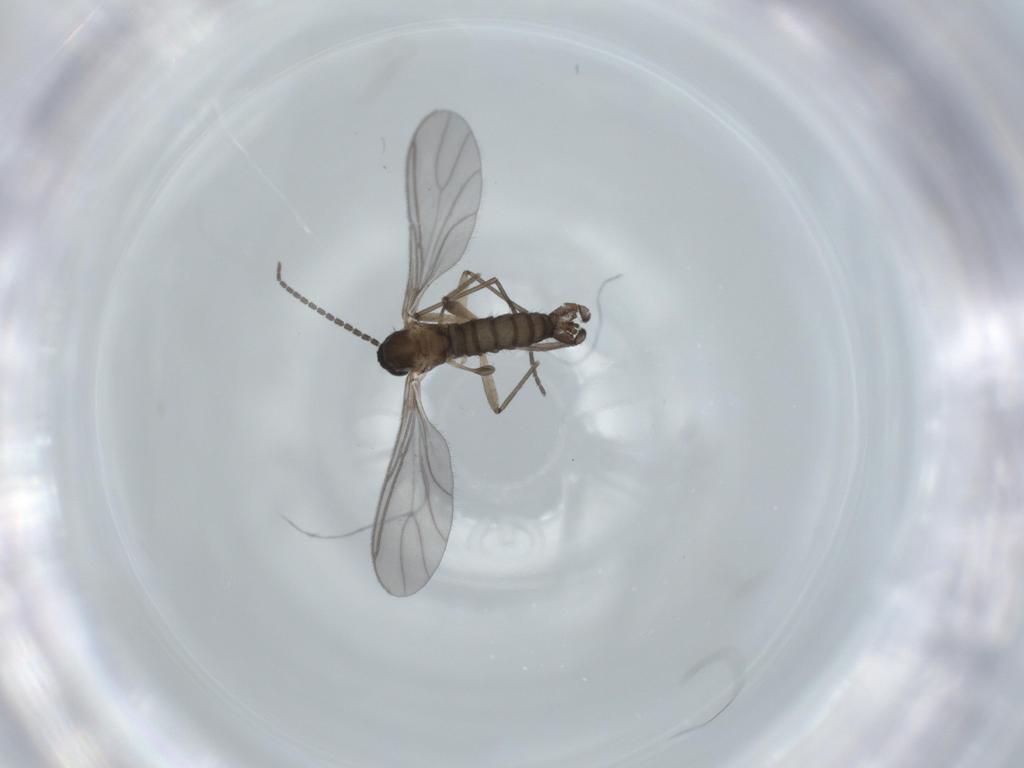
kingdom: Animalia
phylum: Arthropoda
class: Insecta
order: Diptera
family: Sciaridae
